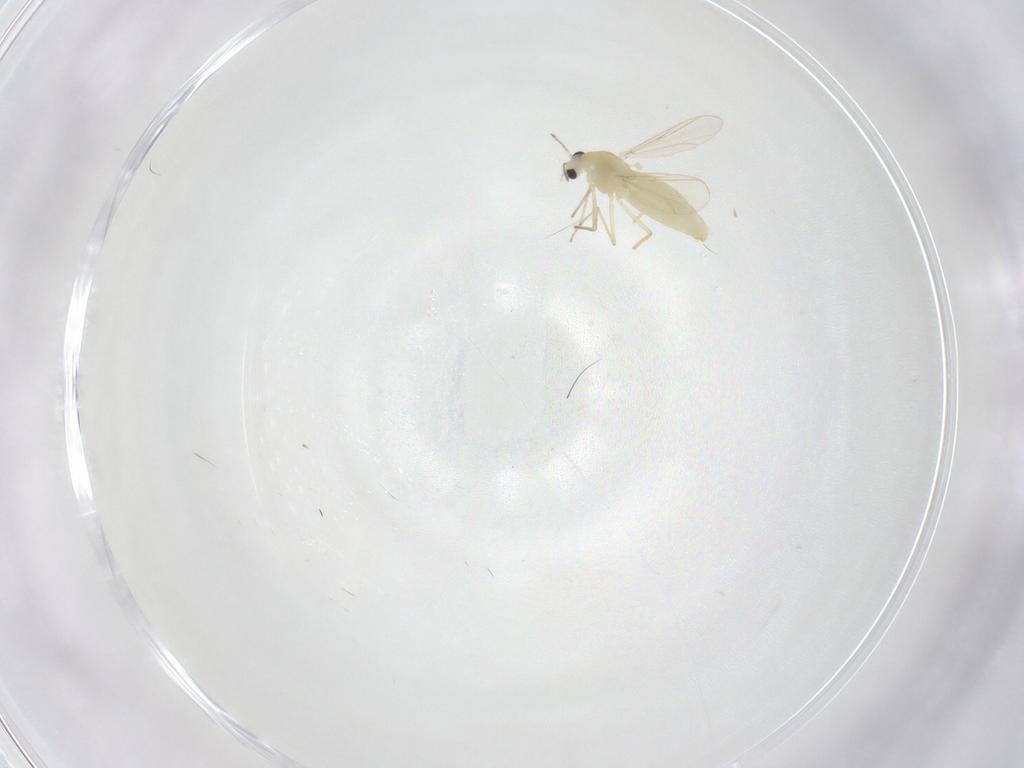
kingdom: Animalia
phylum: Arthropoda
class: Insecta
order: Diptera
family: Chironomidae
